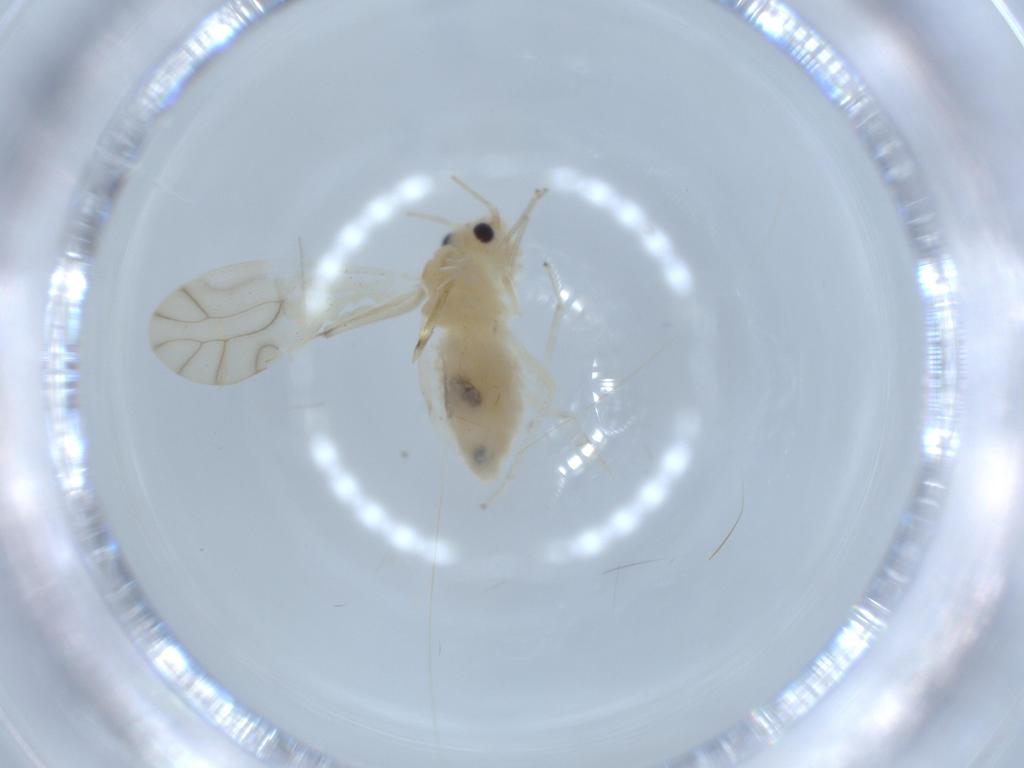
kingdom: Animalia
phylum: Arthropoda
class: Insecta
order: Psocodea
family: Caeciliusidae
